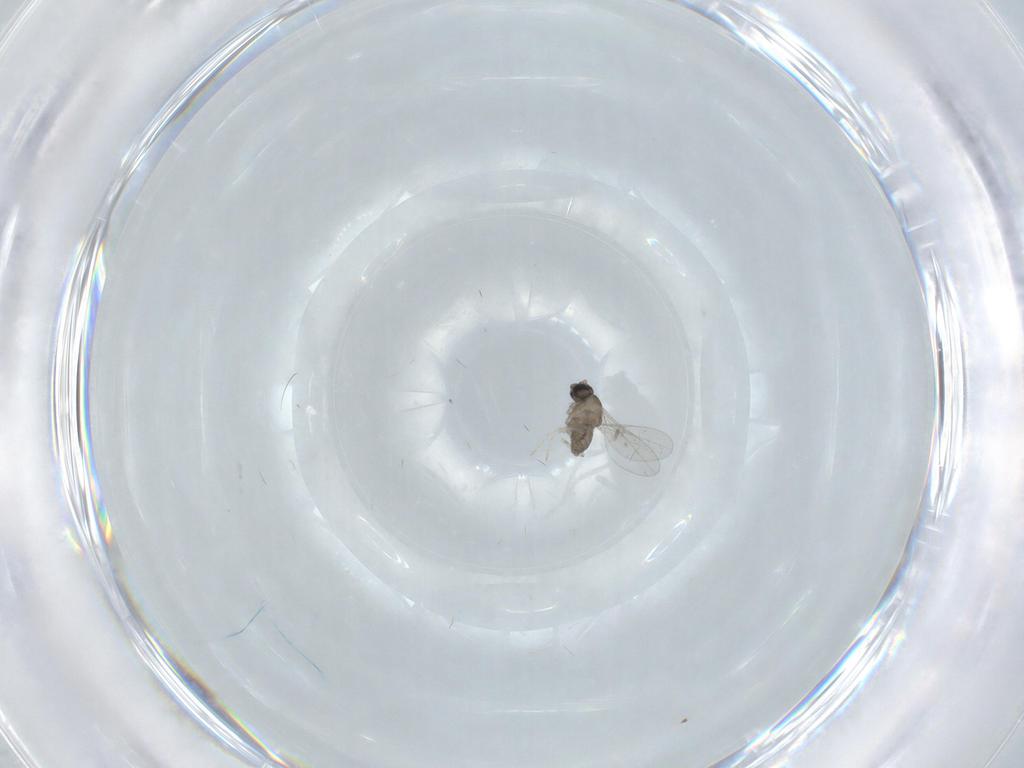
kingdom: Animalia
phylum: Arthropoda
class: Insecta
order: Diptera
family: Cecidomyiidae
